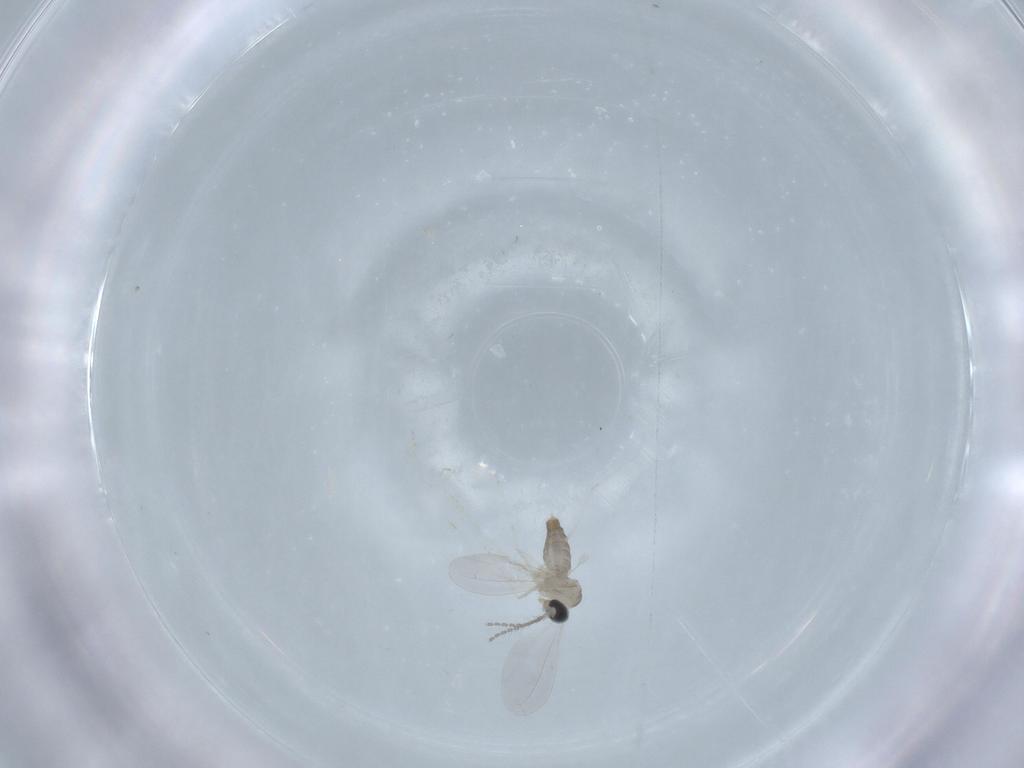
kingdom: Animalia
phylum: Arthropoda
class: Insecta
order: Diptera
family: Cecidomyiidae
